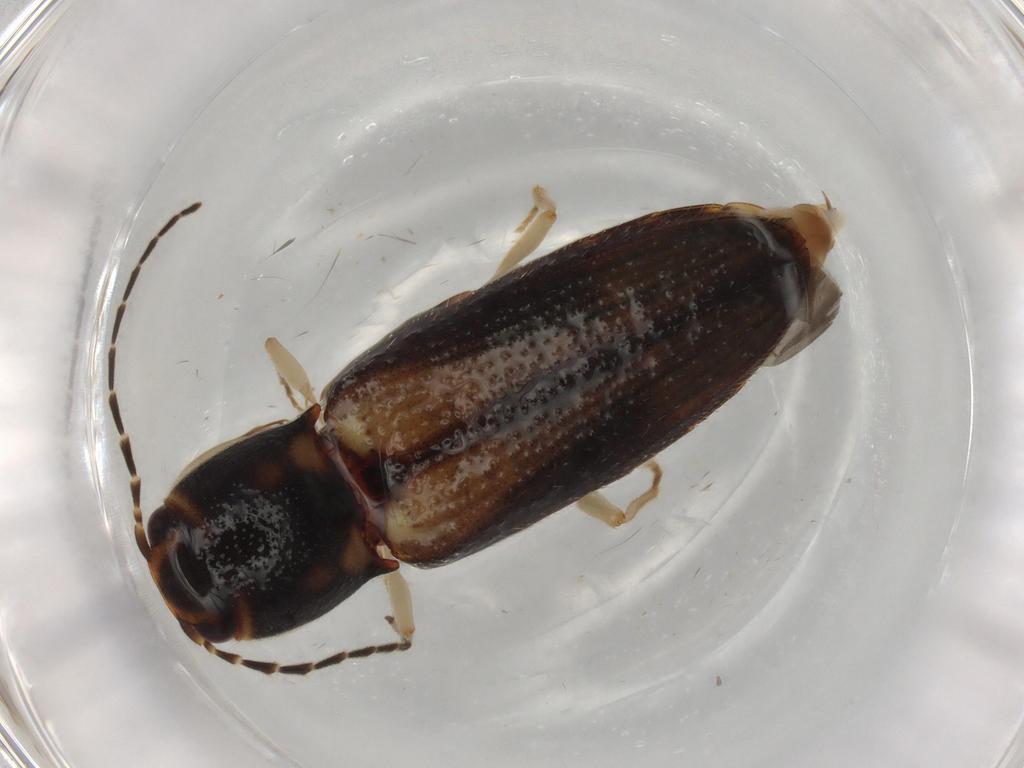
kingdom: Animalia
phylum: Arthropoda
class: Insecta
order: Coleoptera
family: Elateridae
